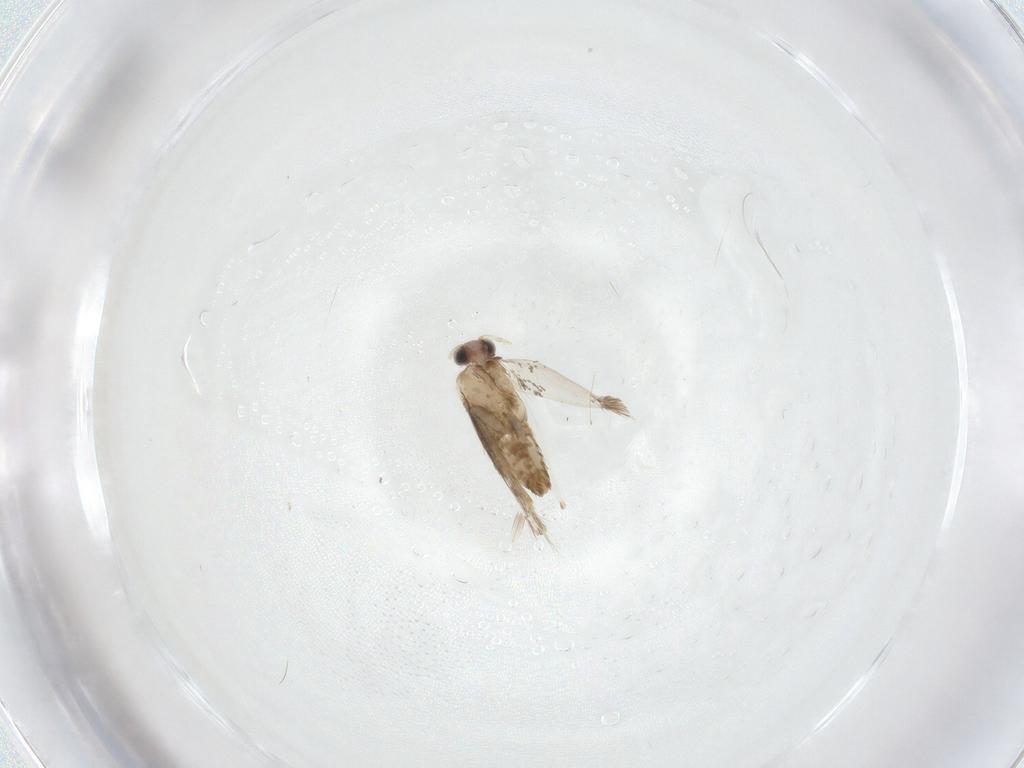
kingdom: Animalia
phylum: Arthropoda
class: Insecta
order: Lepidoptera
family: Nepticulidae
